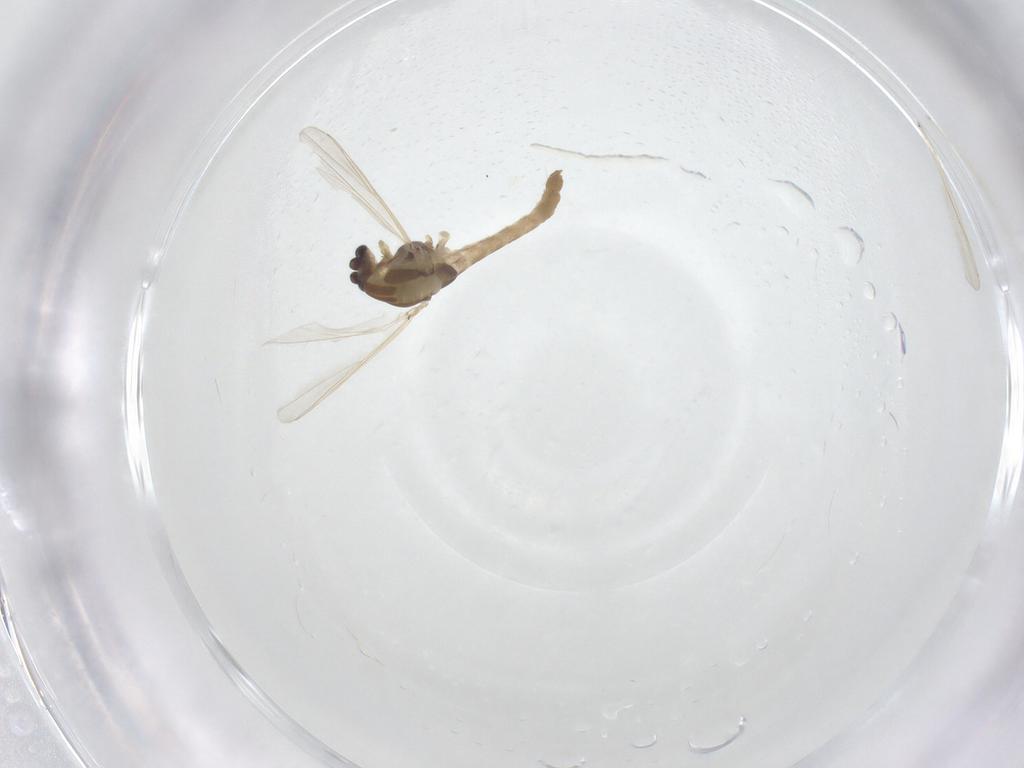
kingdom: Animalia
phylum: Arthropoda
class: Insecta
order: Diptera
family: Chironomidae
